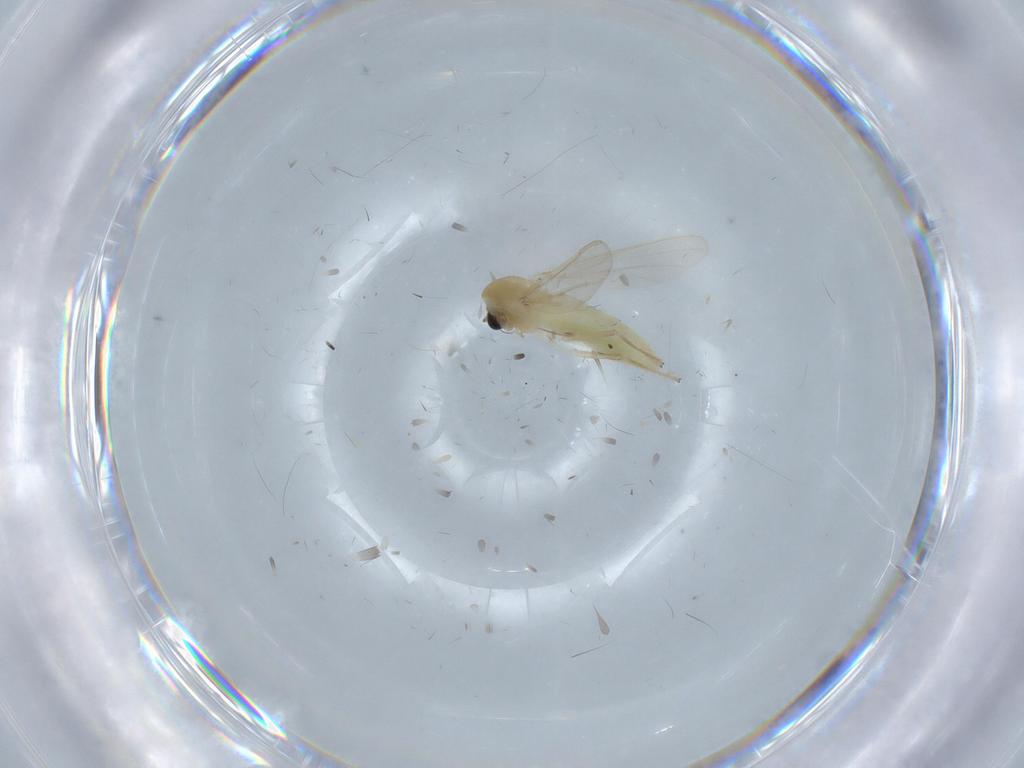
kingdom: Animalia
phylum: Arthropoda
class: Insecta
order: Diptera
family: Chironomidae
